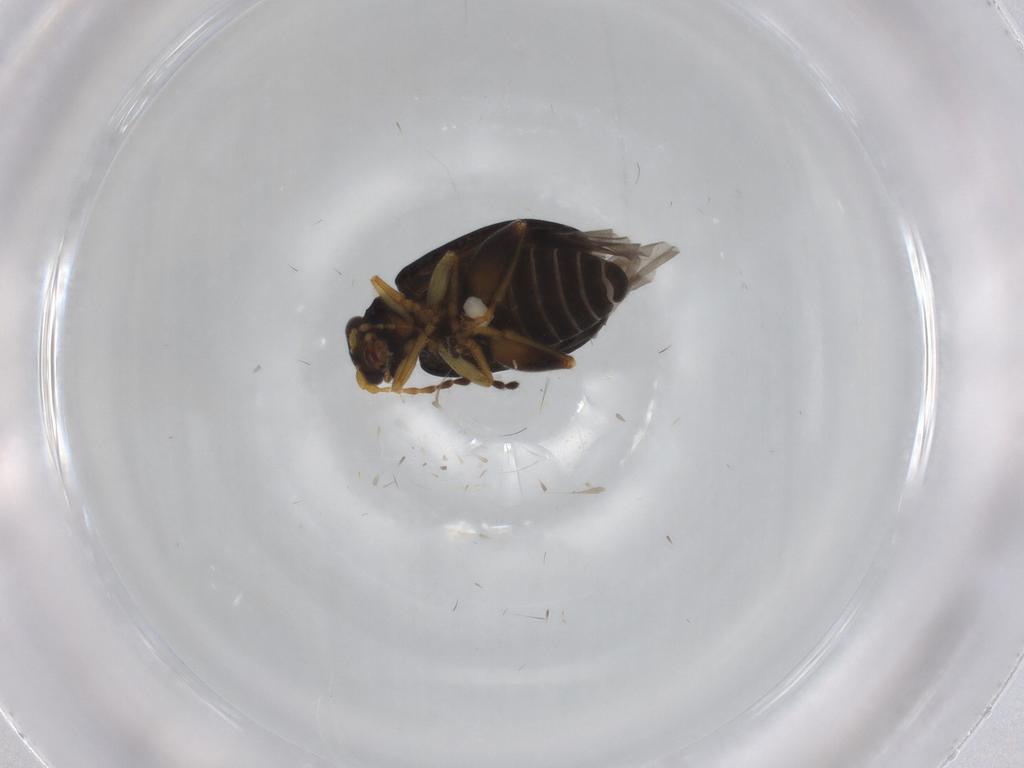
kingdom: Animalia
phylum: Arthropoda
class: Insecta
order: Coleoptera
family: Chrysomelidae
